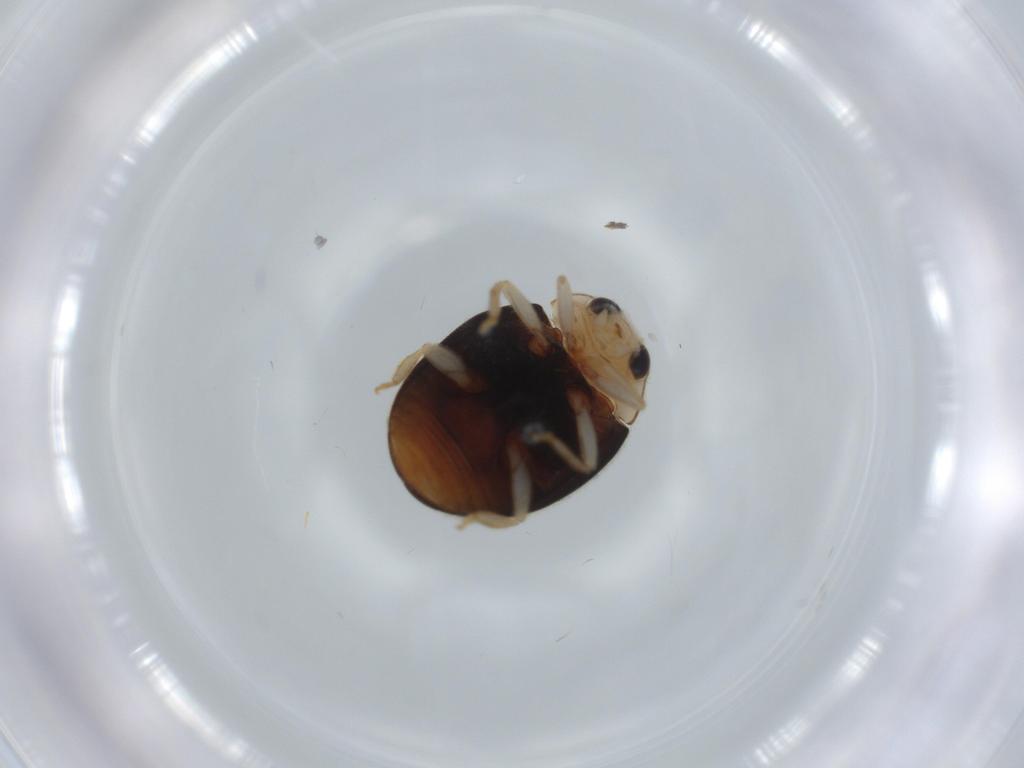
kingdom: Animalia
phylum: Arthropoda
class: Insecta
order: Coleoptera
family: Coccinellidae
